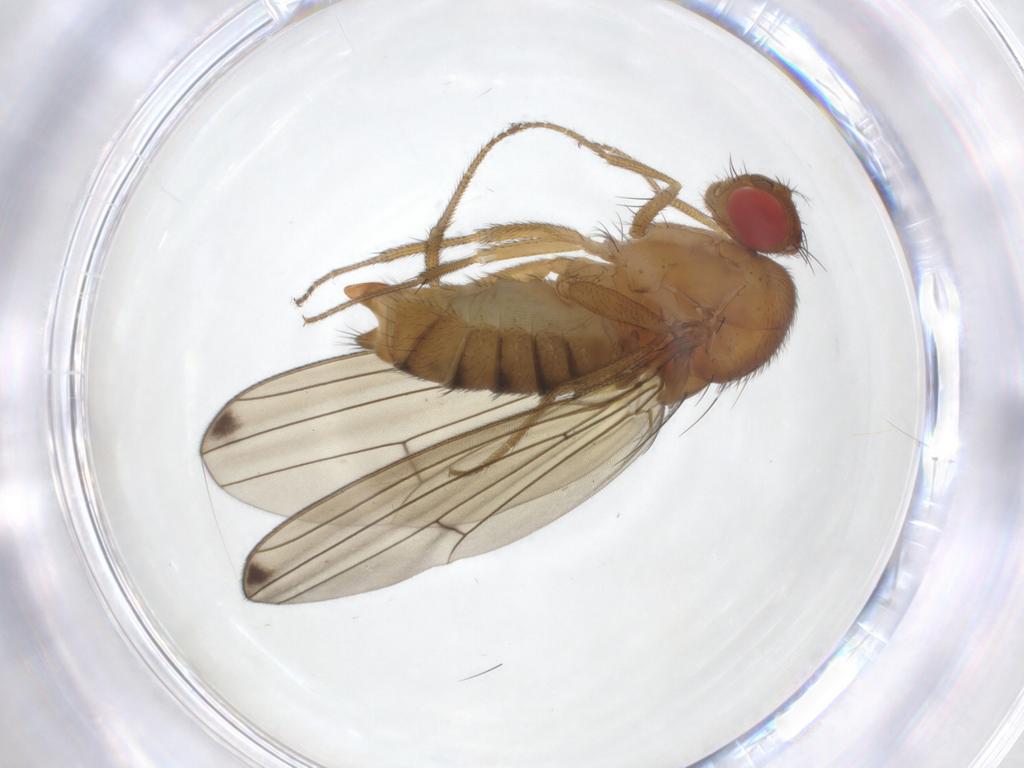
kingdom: Animalia
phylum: Arthropoda
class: Insecta
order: Diptera
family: Drosophilidae
